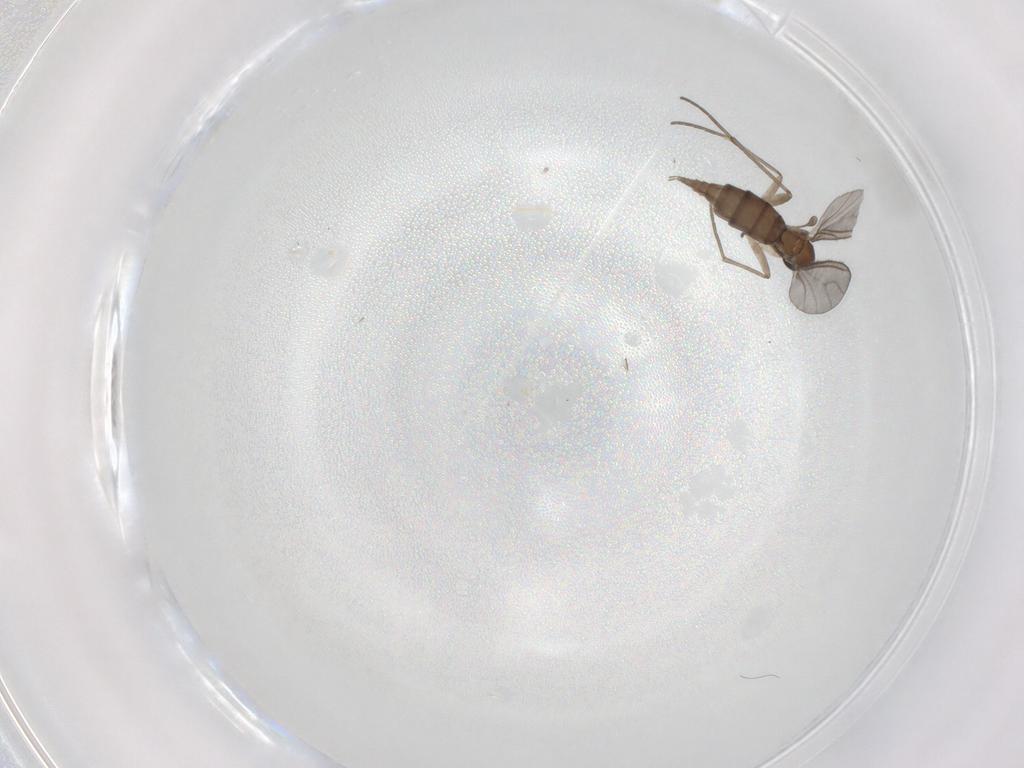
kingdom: Animalia
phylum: Arthropoda
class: Insecta
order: Diptera
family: Sciaridae
